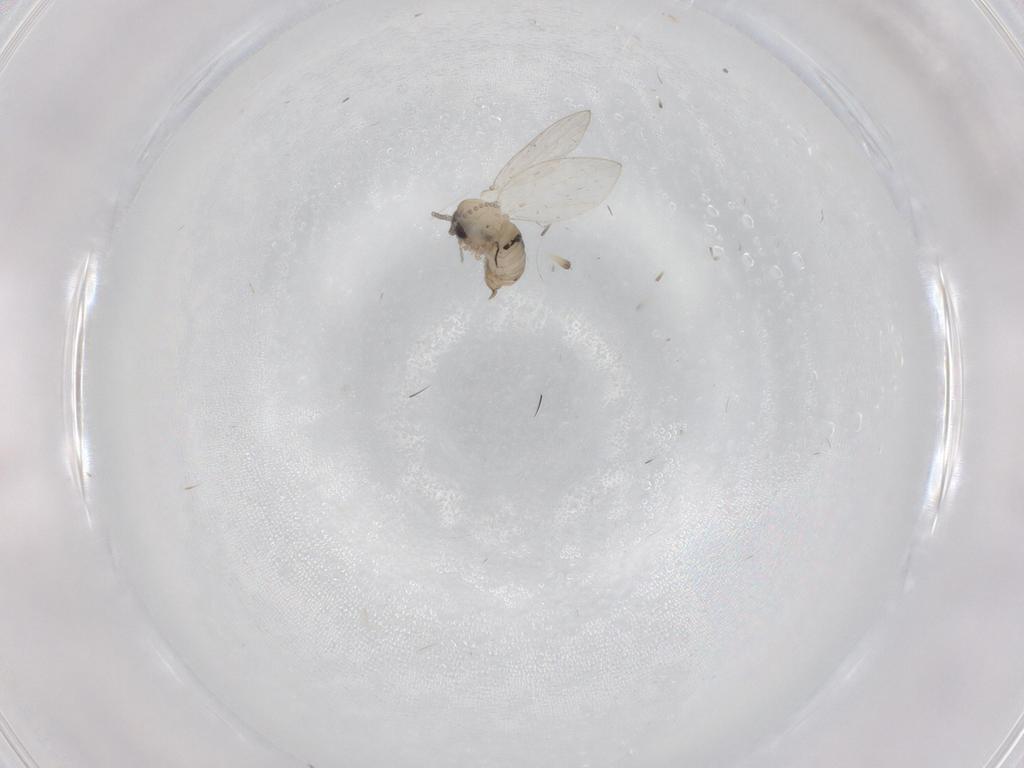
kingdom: Animalia
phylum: Arthropoda
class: Insecta
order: Diptera
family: Psychodidae
